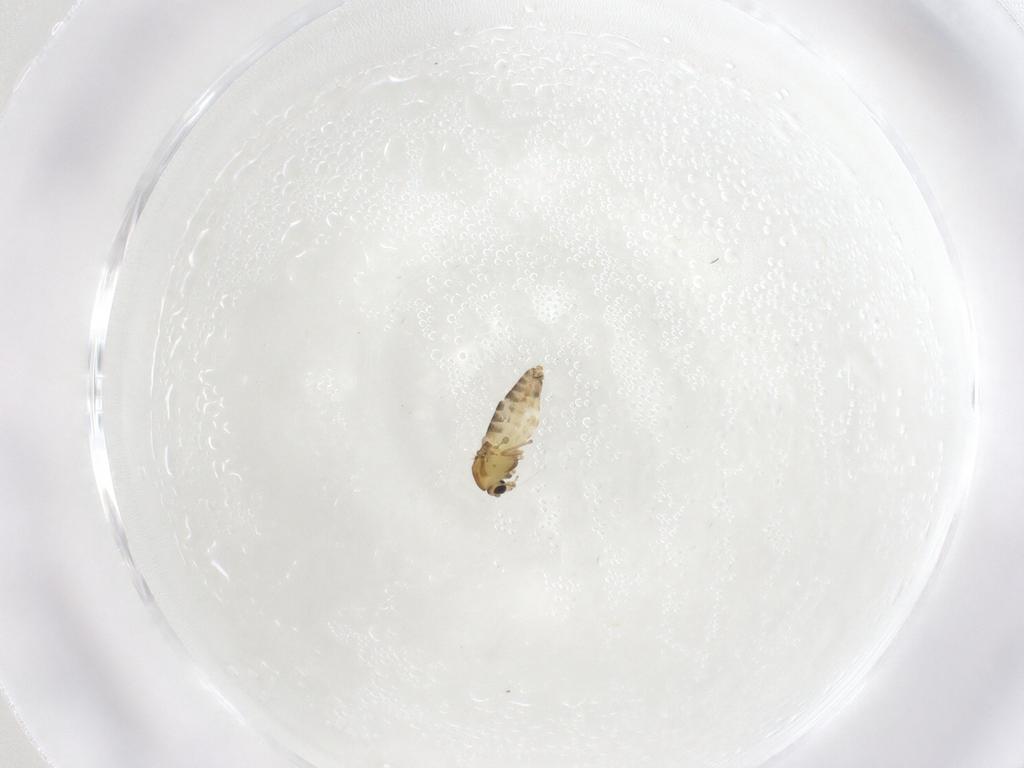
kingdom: Animalia
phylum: Arthropoda
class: Insecta
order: Diptera
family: Chironomidae
